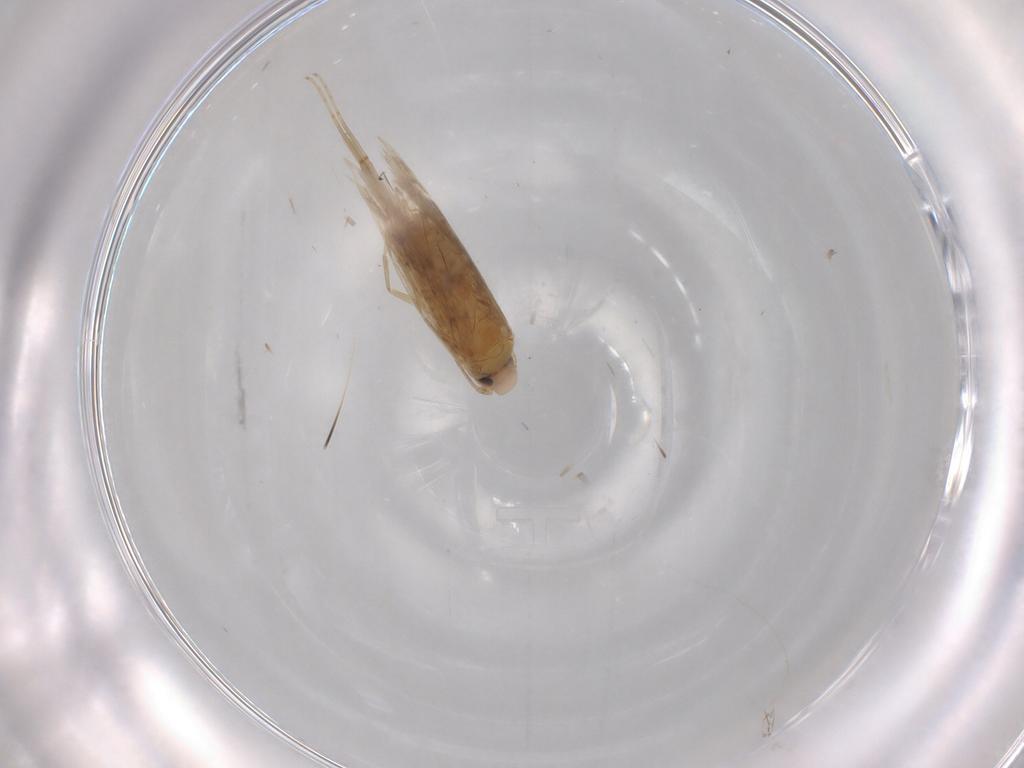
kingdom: Animalia
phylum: Arthropoda
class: Insecta
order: Lepidoptera
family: Tischeriidae
